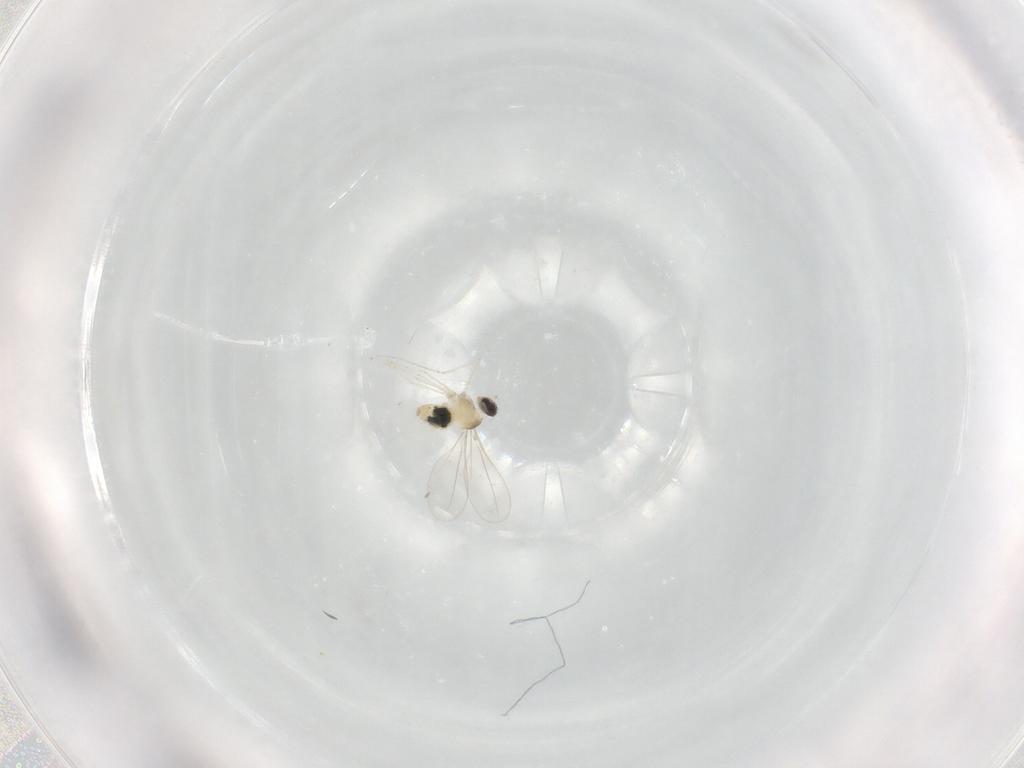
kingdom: Animalia
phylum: Arthropoda
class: Insecta
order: Diptera
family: Cecidomyiidae
